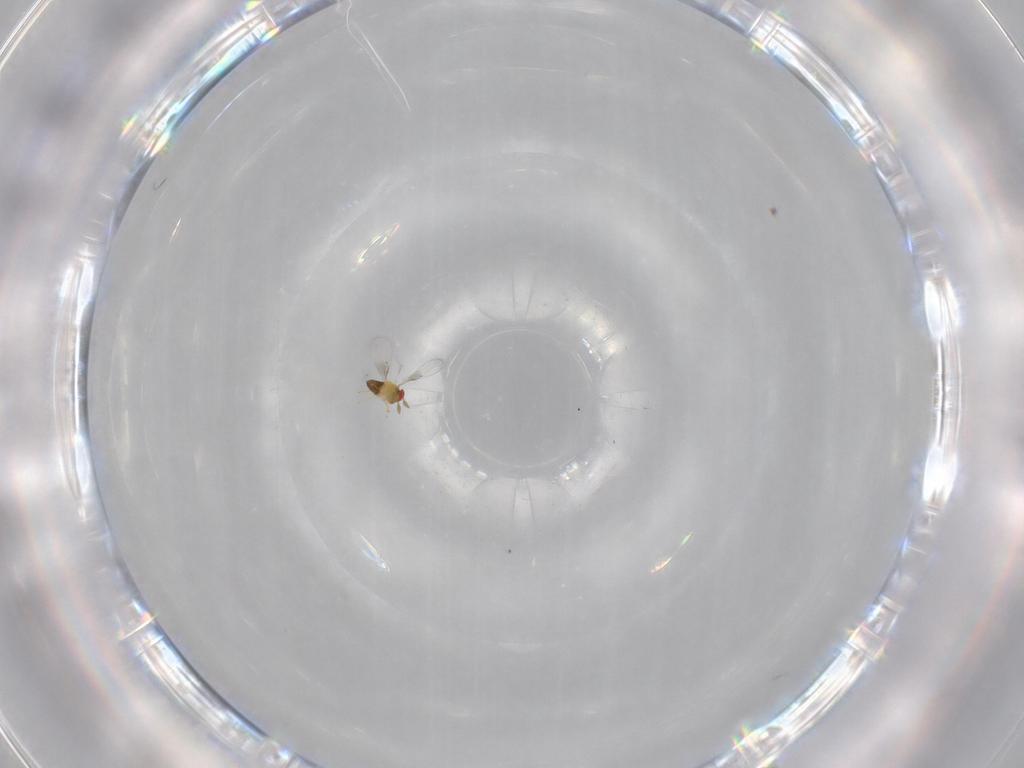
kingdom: Animalia
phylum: Arthropoda
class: Insecta
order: Hymenoptera
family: Trichogrammatidae
